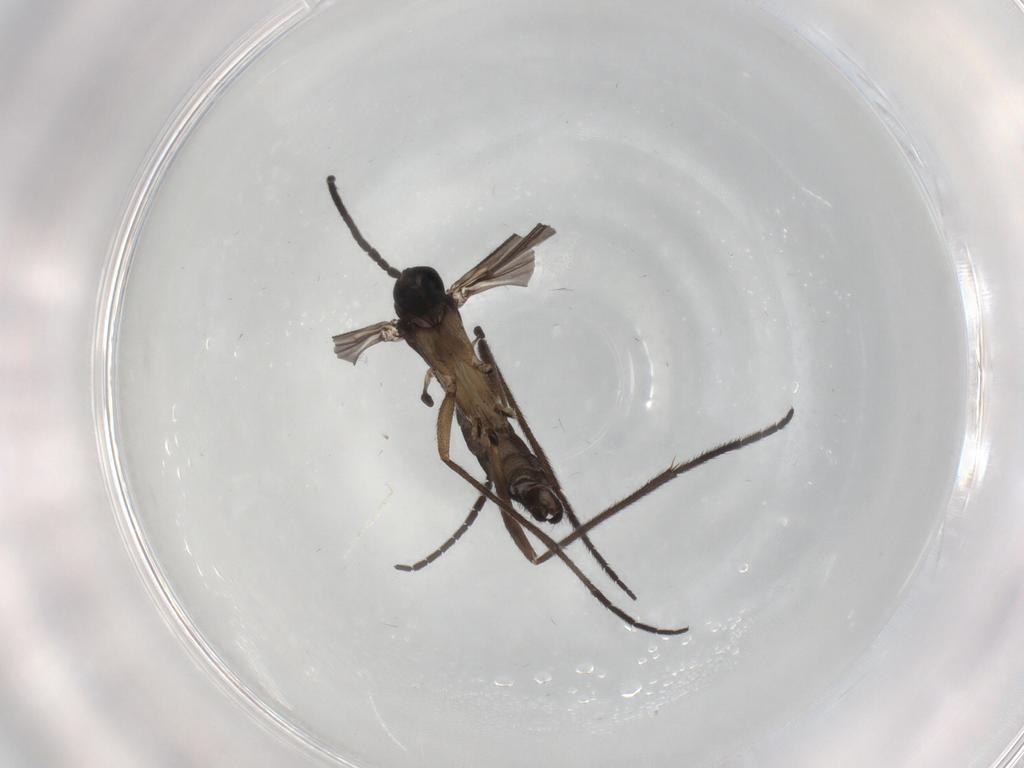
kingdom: Animalia
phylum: Arthropoda
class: Insecta
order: Diptera
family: Sciaridae
